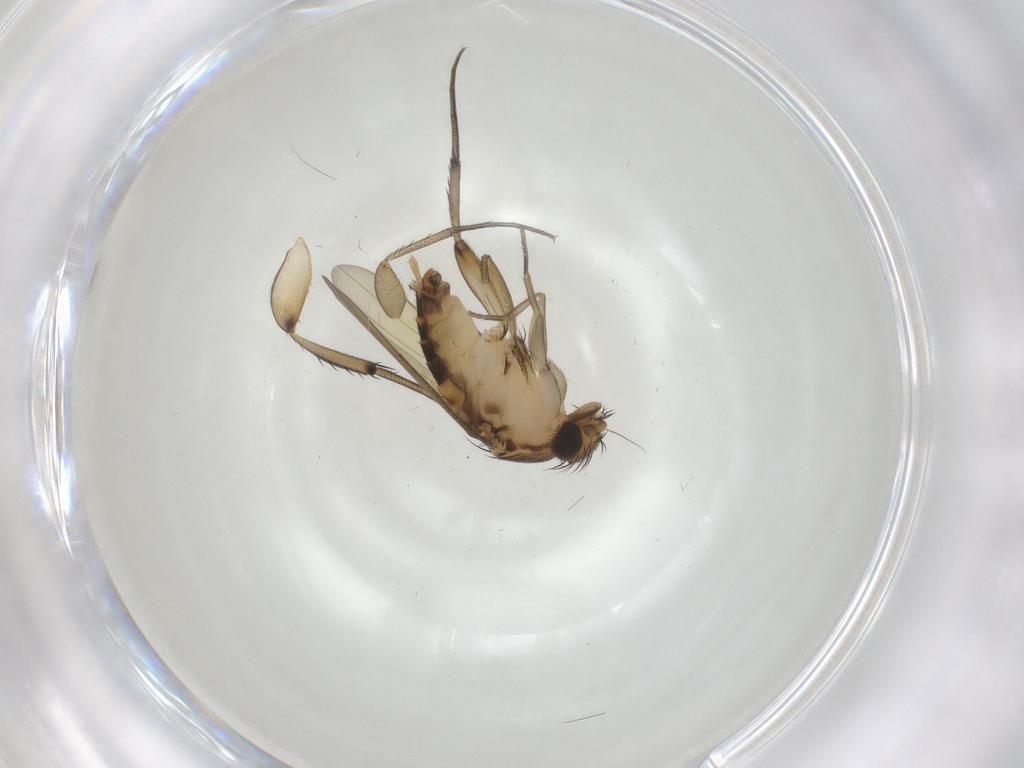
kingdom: Animalia
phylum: Arthropoda
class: Insecta
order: Diptera
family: Phoridae
